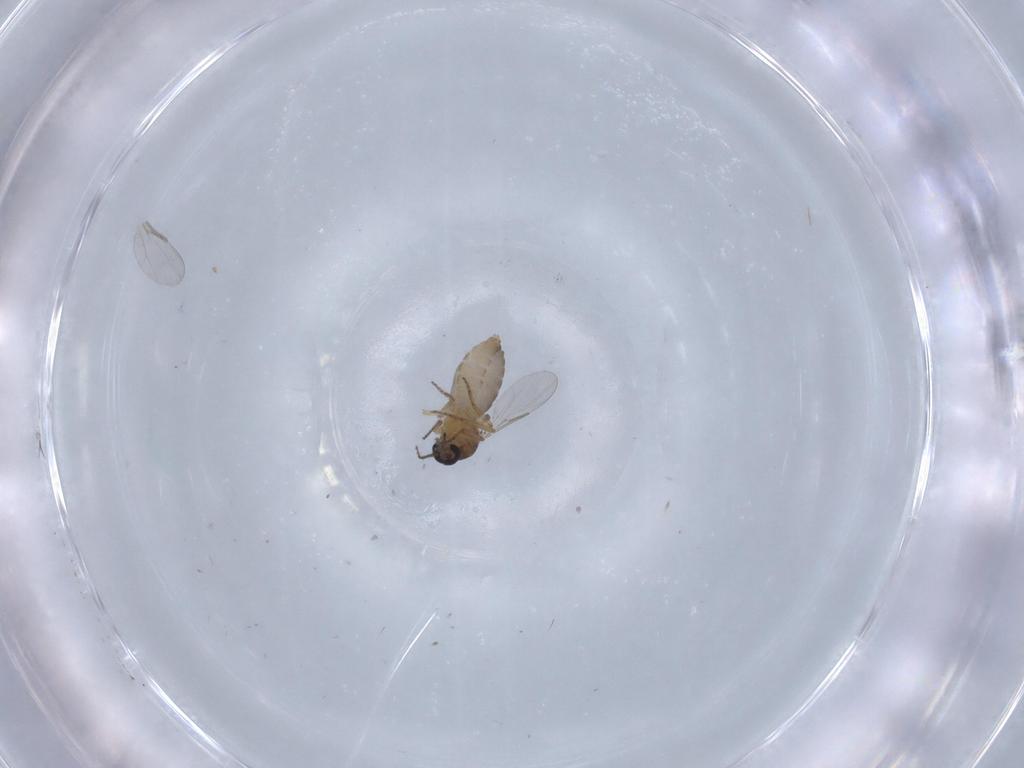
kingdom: Animalia
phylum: Arthropoda
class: Insecta
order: Diptera
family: Ceratopogonidae
